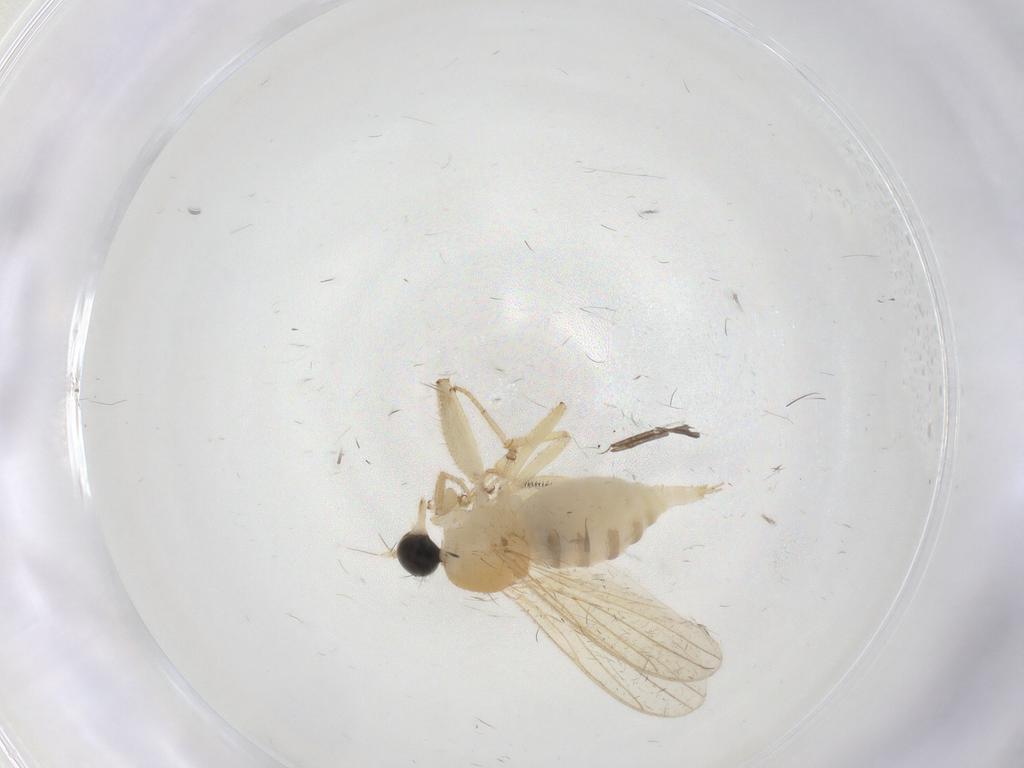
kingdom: Animalia
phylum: Arthropoda
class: Insecta
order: Diptera
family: Hybotidae
